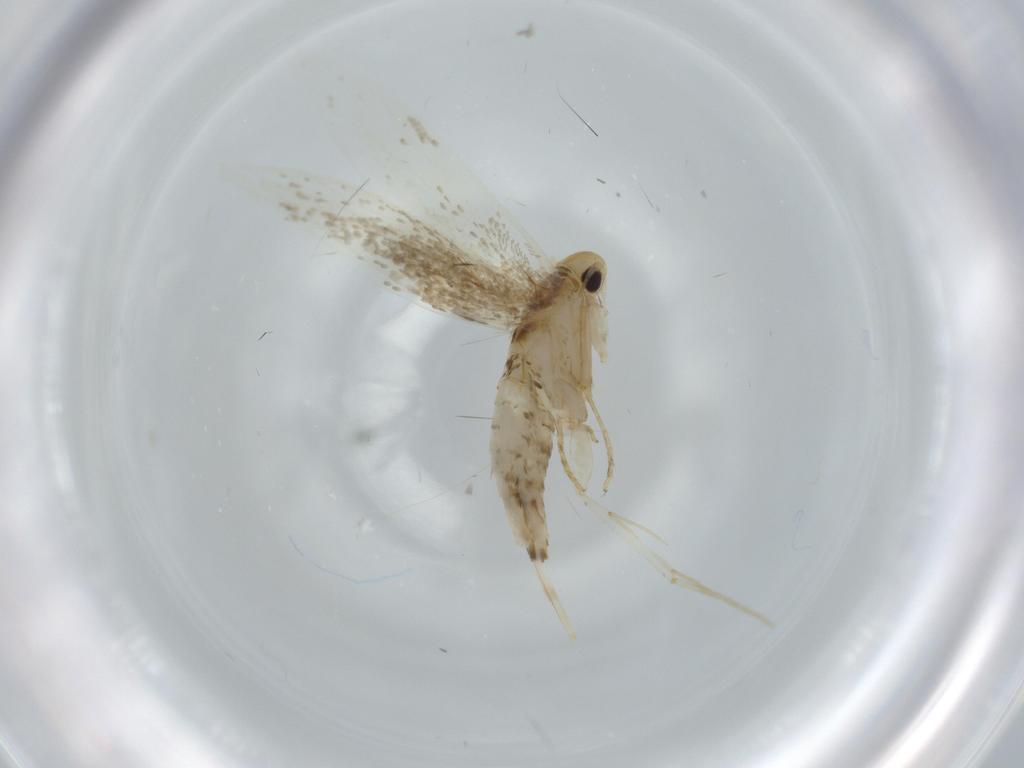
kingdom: Animalia
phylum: Arthropoda
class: Insecta
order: Lepidoptera
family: Tineidae
